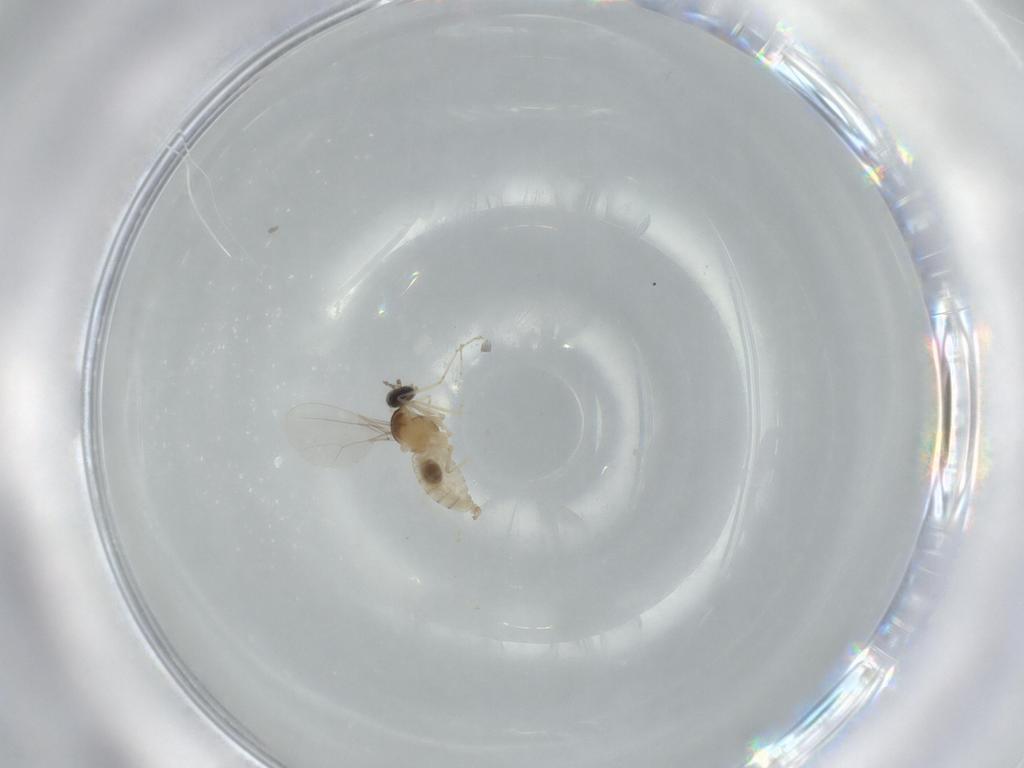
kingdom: Animalia
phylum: Arthropoda
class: Insecta
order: Diptera
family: Cecidomyiidae
